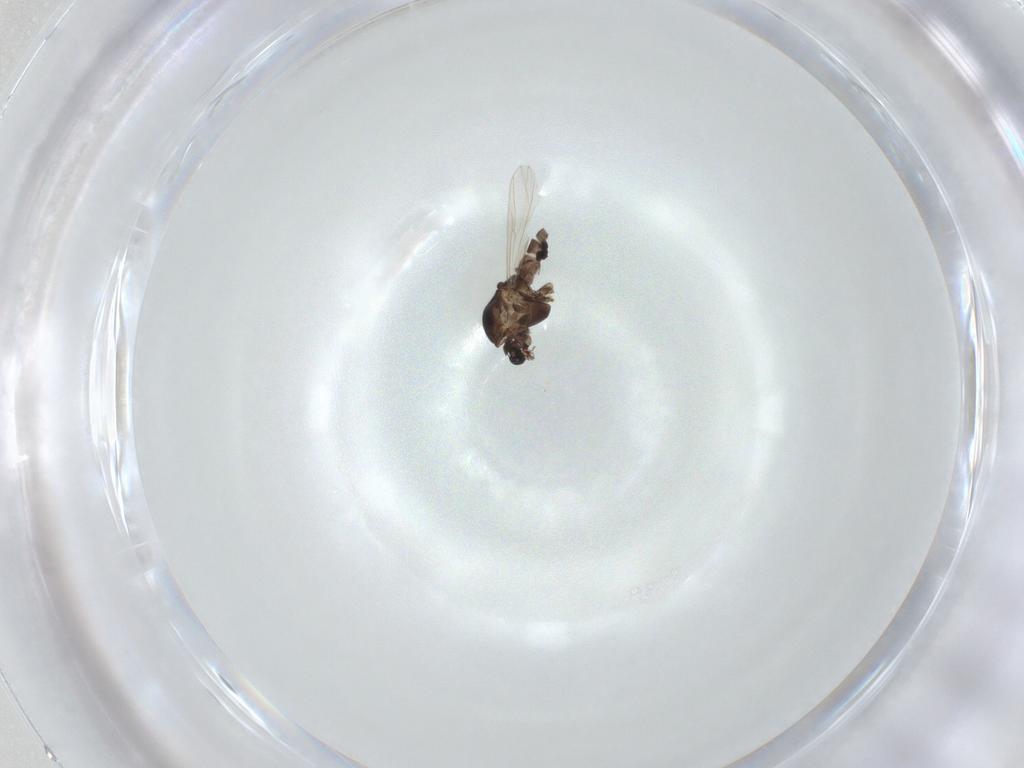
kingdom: Animalia
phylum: Arthropoda
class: Insecta
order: Diptera
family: Chironomidae
